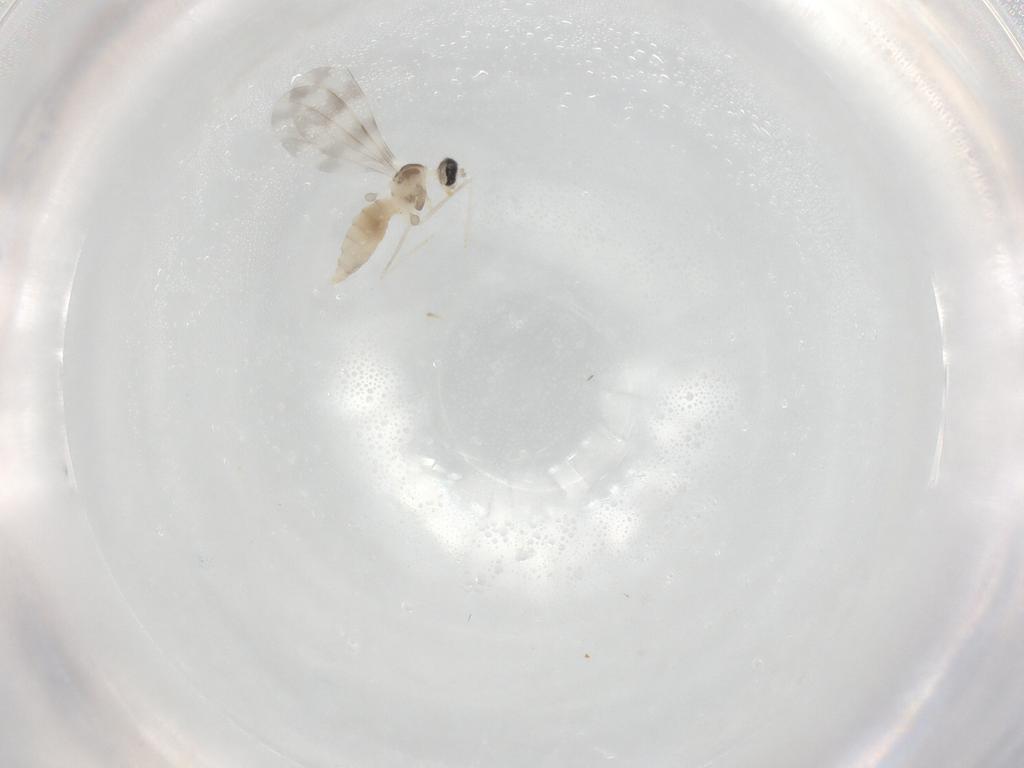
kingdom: Animalia
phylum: Arthropoda
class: Insecta
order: Diptera
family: Cecidomyiidae
